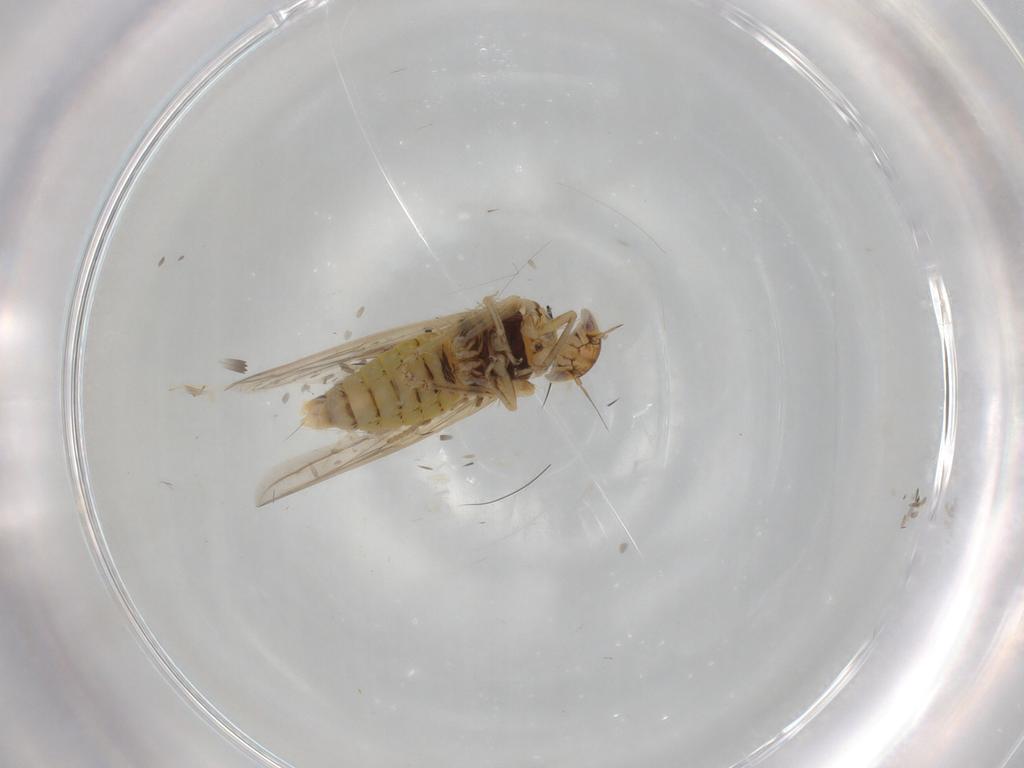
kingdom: Animalia
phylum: Arthropoda
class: Insecta
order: Hemiptera
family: Cicadellidae
